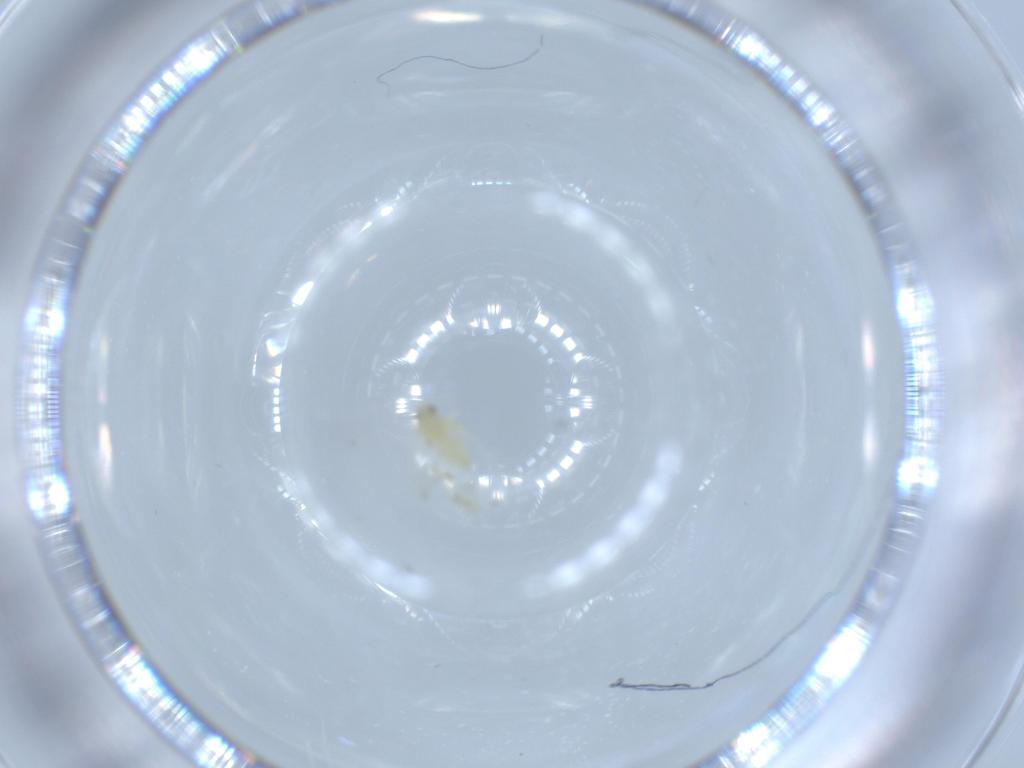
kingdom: Animalia
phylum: Arthropoda
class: Insecta
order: Hemiptera
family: Aleyrodidae
